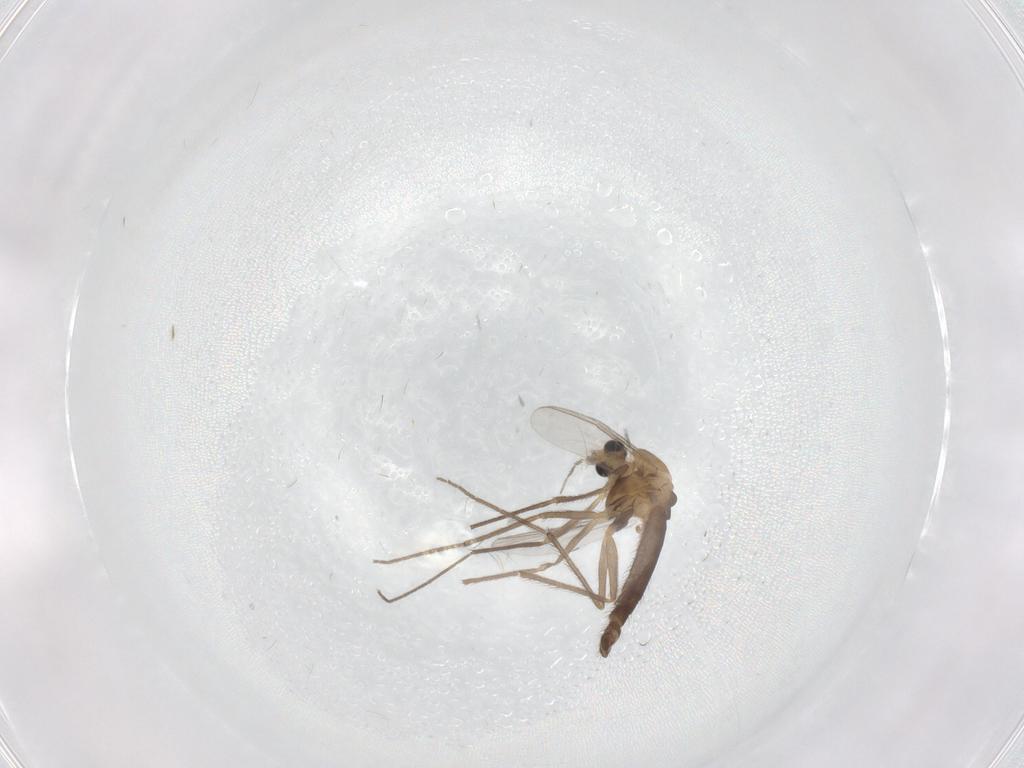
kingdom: Animalia
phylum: Arthropoda
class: Insecta
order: Diptera
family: Chironomidae
